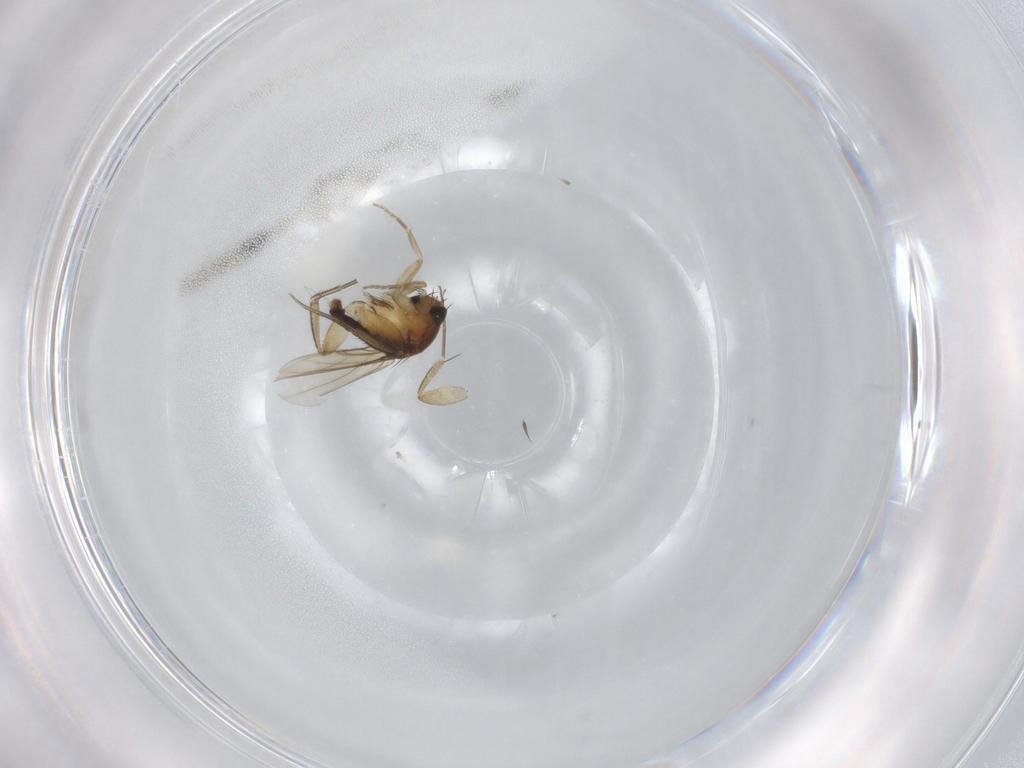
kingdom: Animalia
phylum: Arthropoda
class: Insecta
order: Diptera
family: Phoridae
